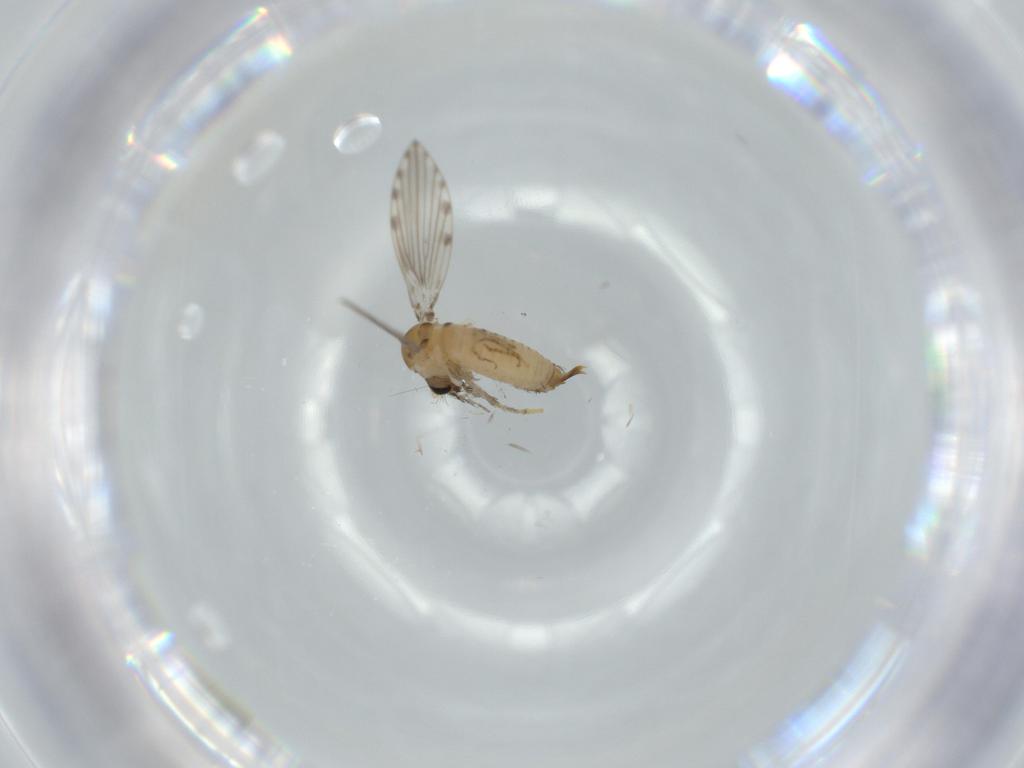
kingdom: Animalia
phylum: Arthropoda
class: Insecta
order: Diptera
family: Psychodidae
